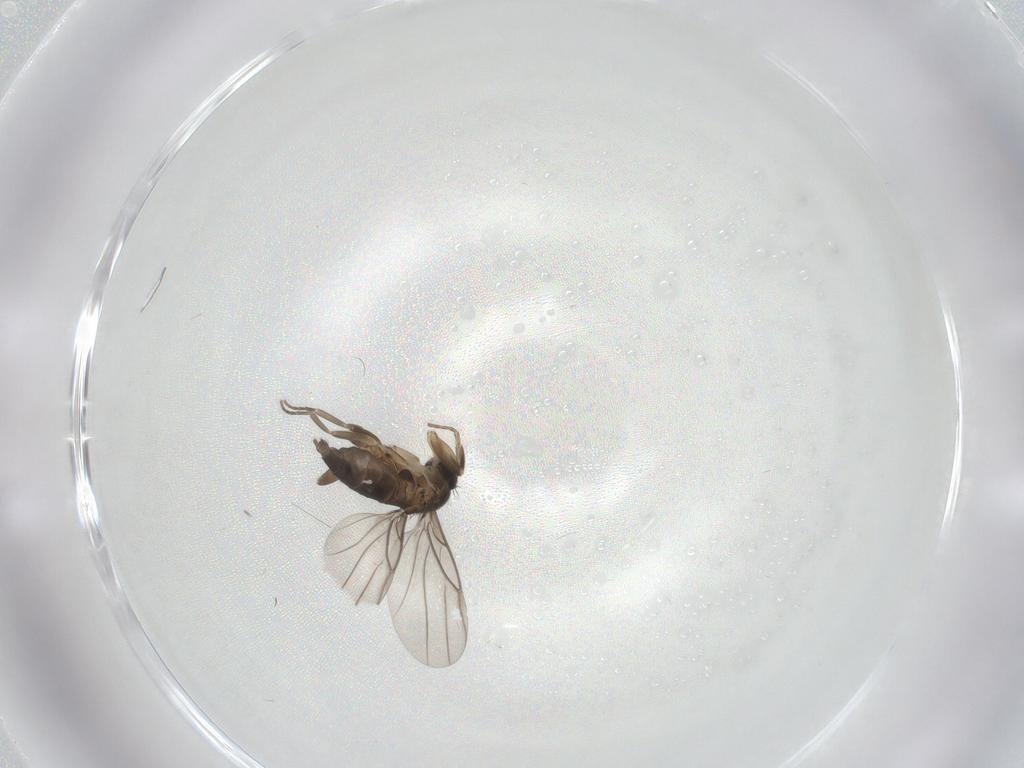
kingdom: Animalia
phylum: Arthropoda
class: Insecta
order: Diptera
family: Phoridae
